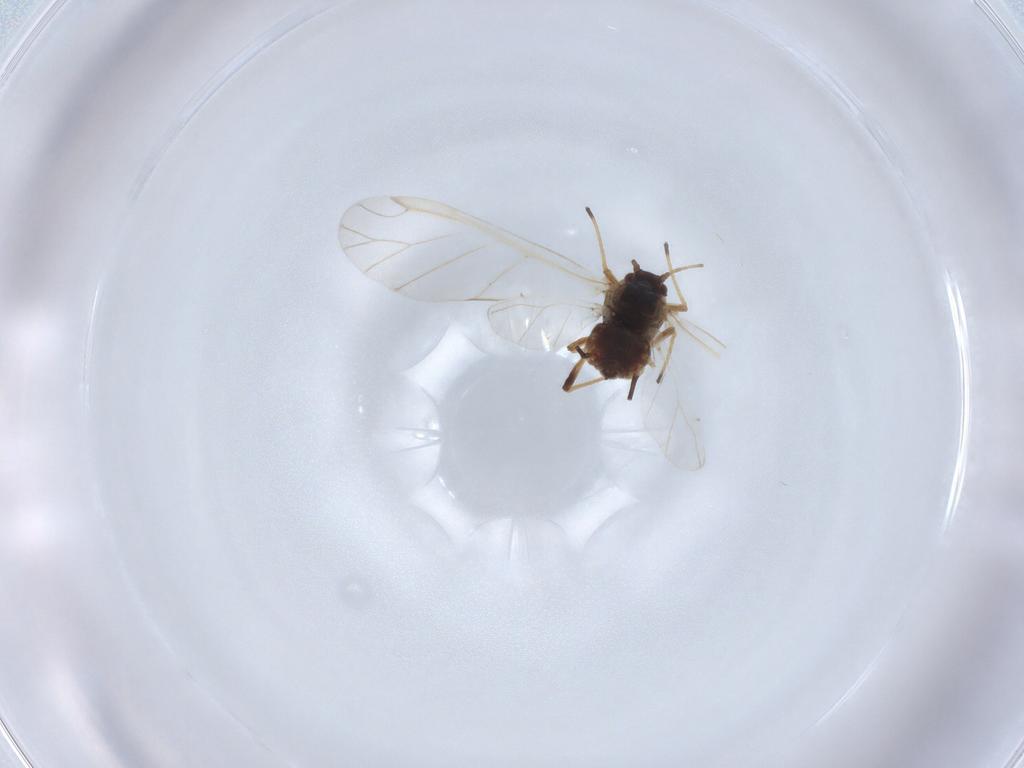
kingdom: Animalia
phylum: Arthropoda
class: Insecta
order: Hemiptera
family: Aphididae
